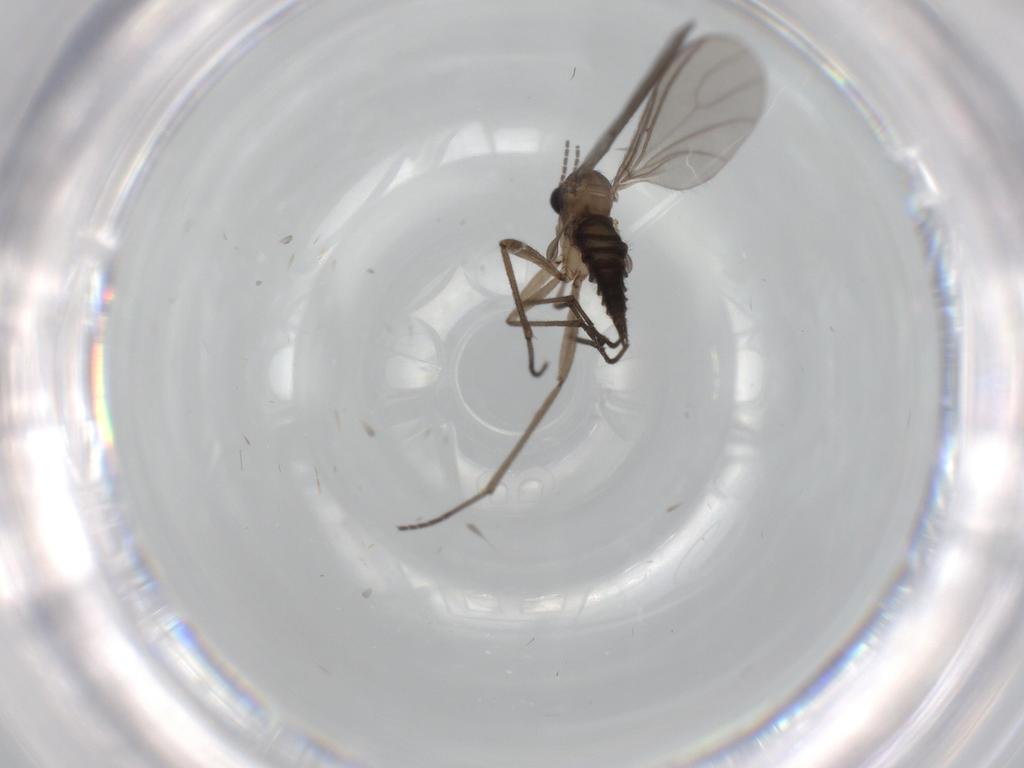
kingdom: Animalia
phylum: Arthropoda
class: Insecta
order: Diptera
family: Sciaridae
